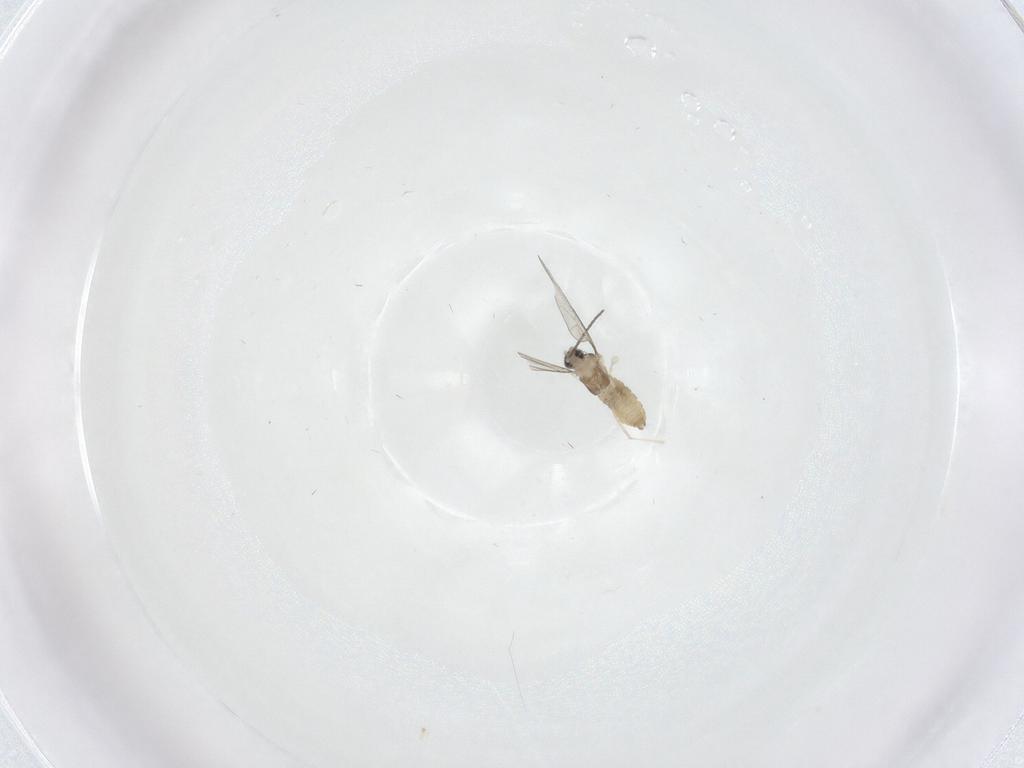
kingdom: Animalia
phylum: Arthropoda
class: Insecta
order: Diptera
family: Cecidomyiidae
